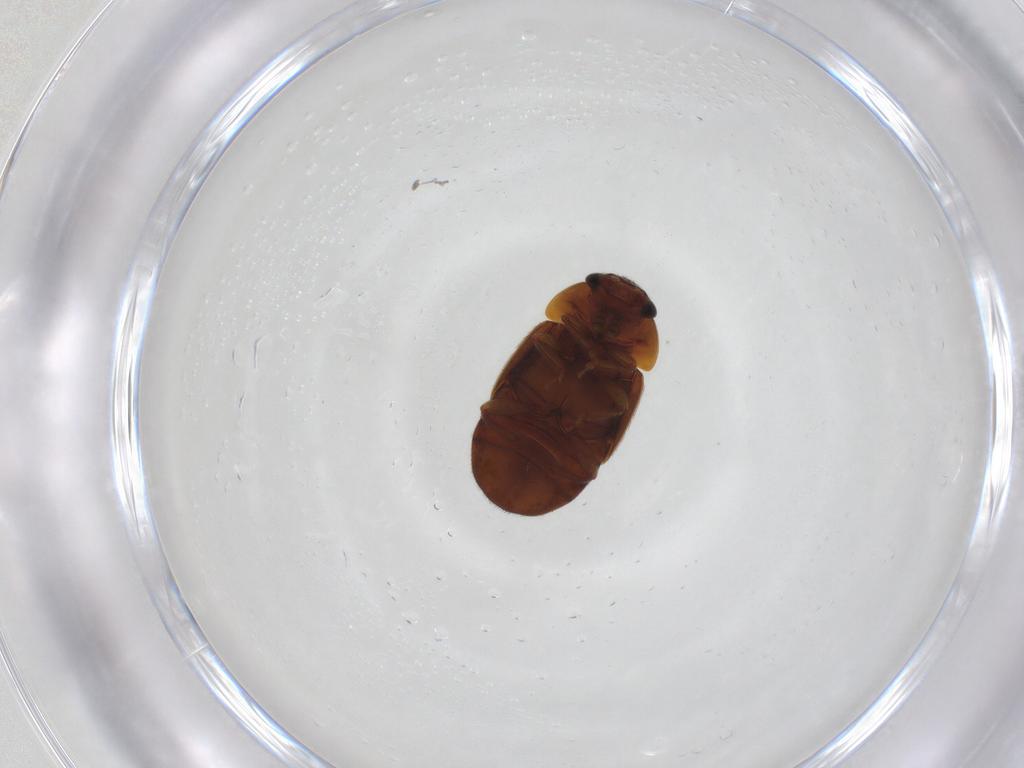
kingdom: Animalia
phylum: Arthropoda
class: Insecta
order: Coleoptera
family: Nitidulidae
